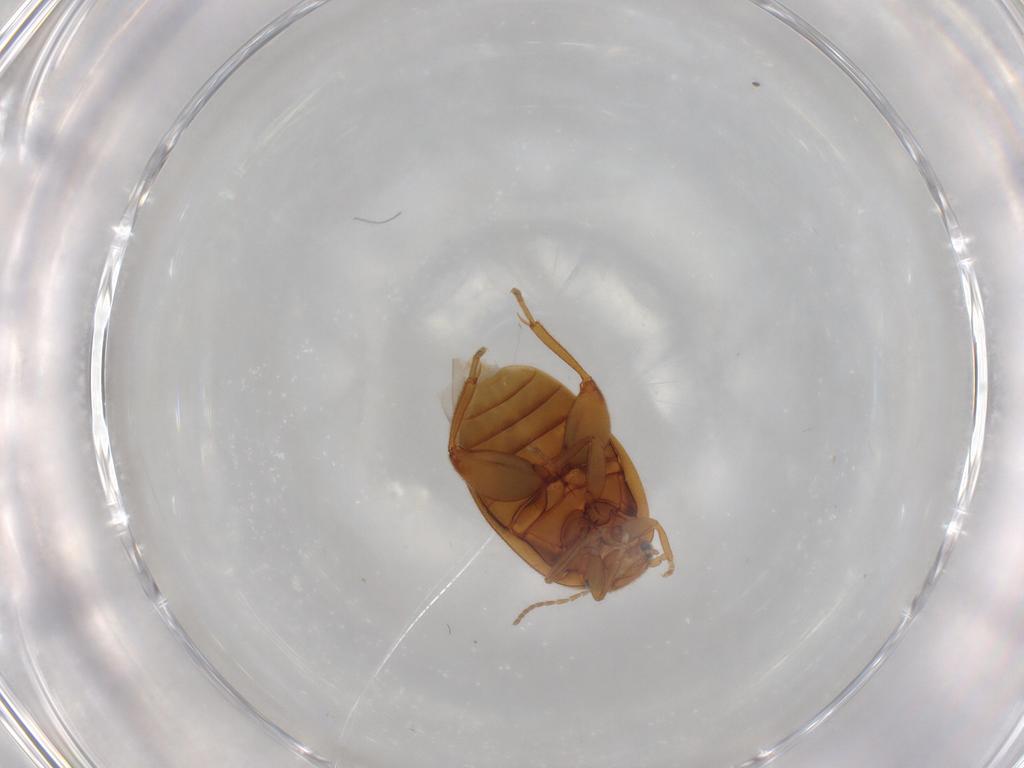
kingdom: Animalia
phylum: Arthropoda
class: Insecta
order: Coleoptera
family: Scirtidae
